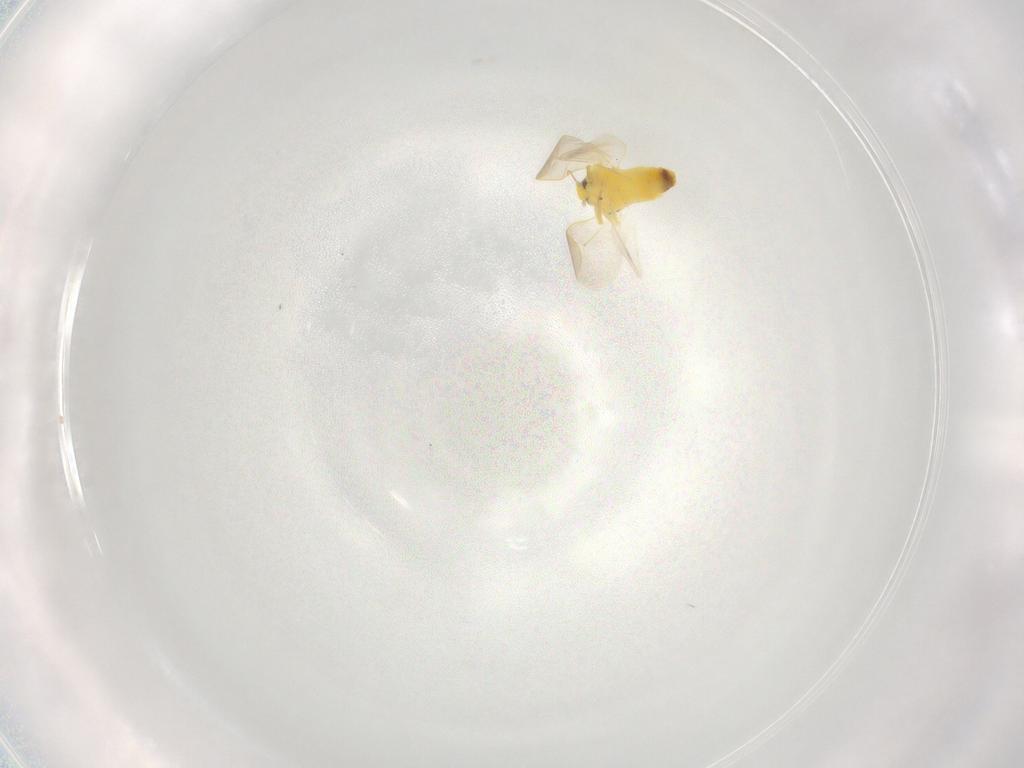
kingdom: Animalia
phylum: Arthropoda
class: Insecta
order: Hemiptera
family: Aleyrodidae
